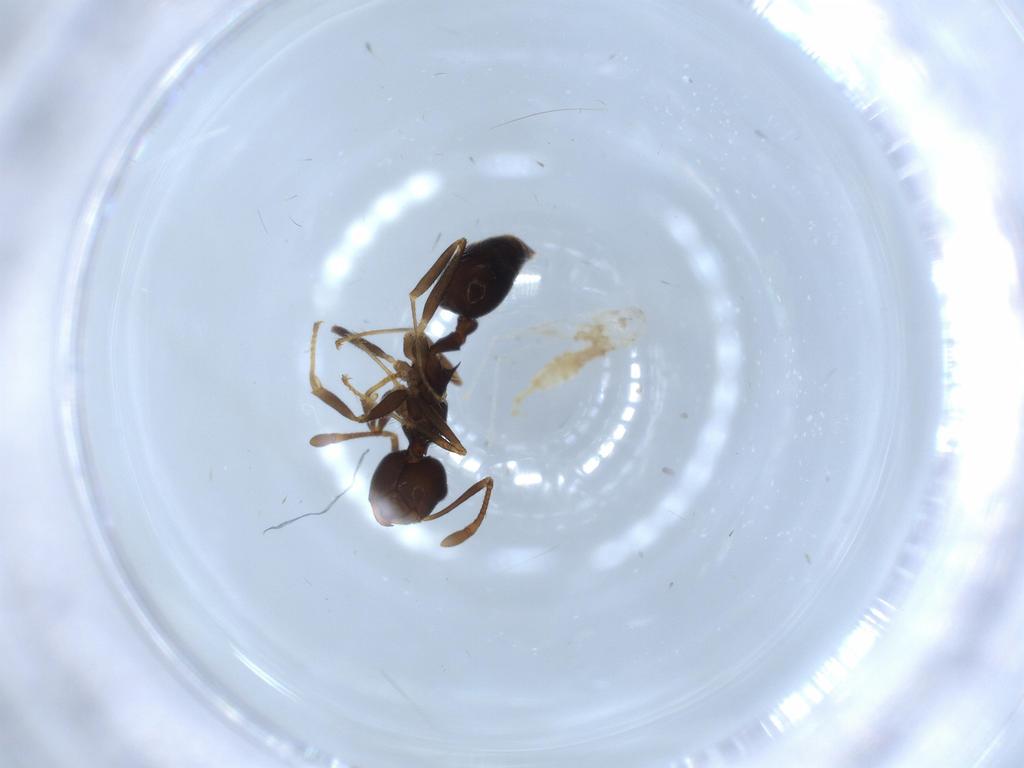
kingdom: Animalia
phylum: Arthropoda
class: Insecta
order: Hymenoptera
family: Formicidae
